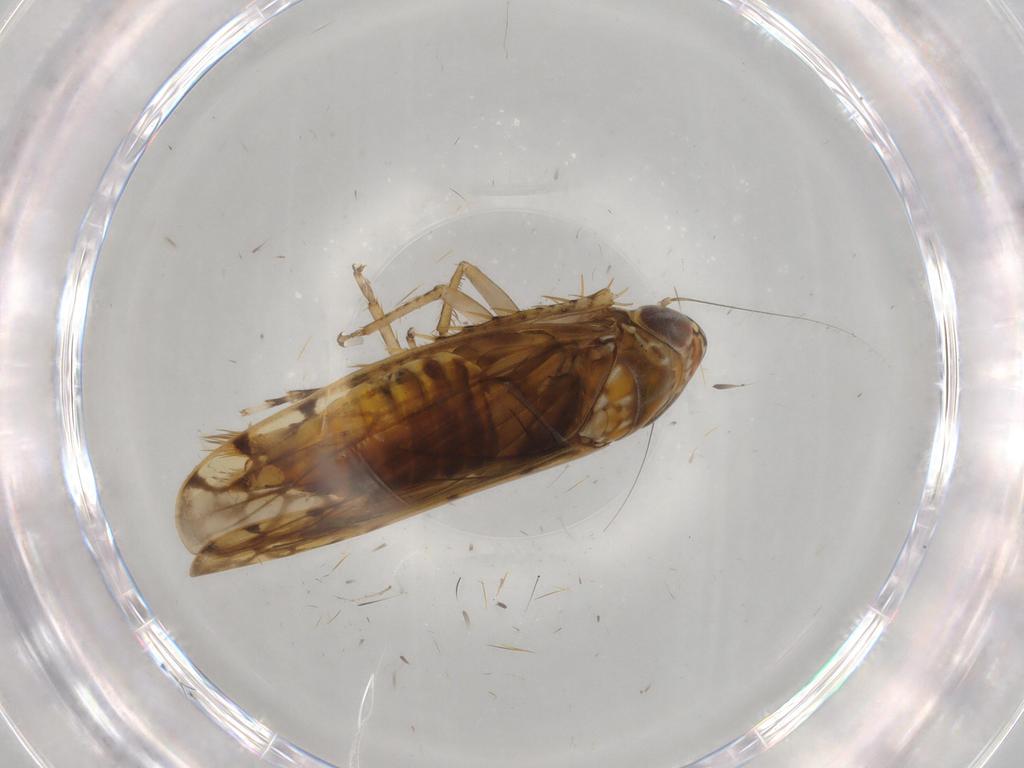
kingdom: Animalia
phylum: Arthropoda
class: Insecta
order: Hemiptera
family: Cicadellidae
